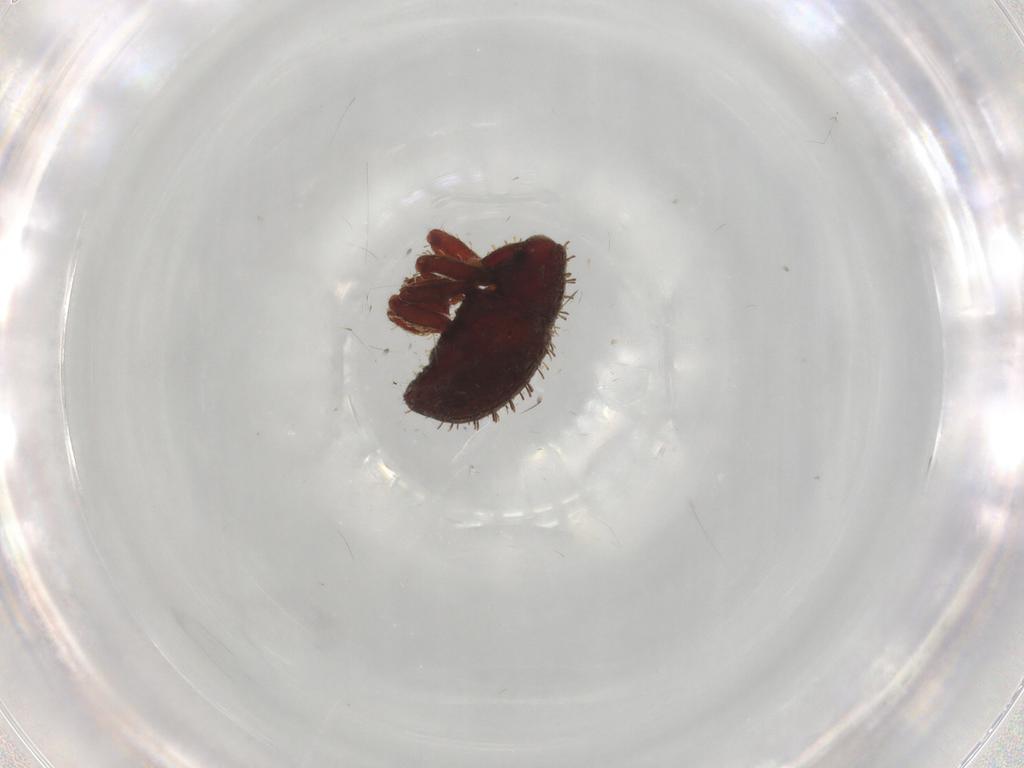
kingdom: Animalia
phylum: Arthropoda
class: Insecta
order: Coleoptera
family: Curculionidae
